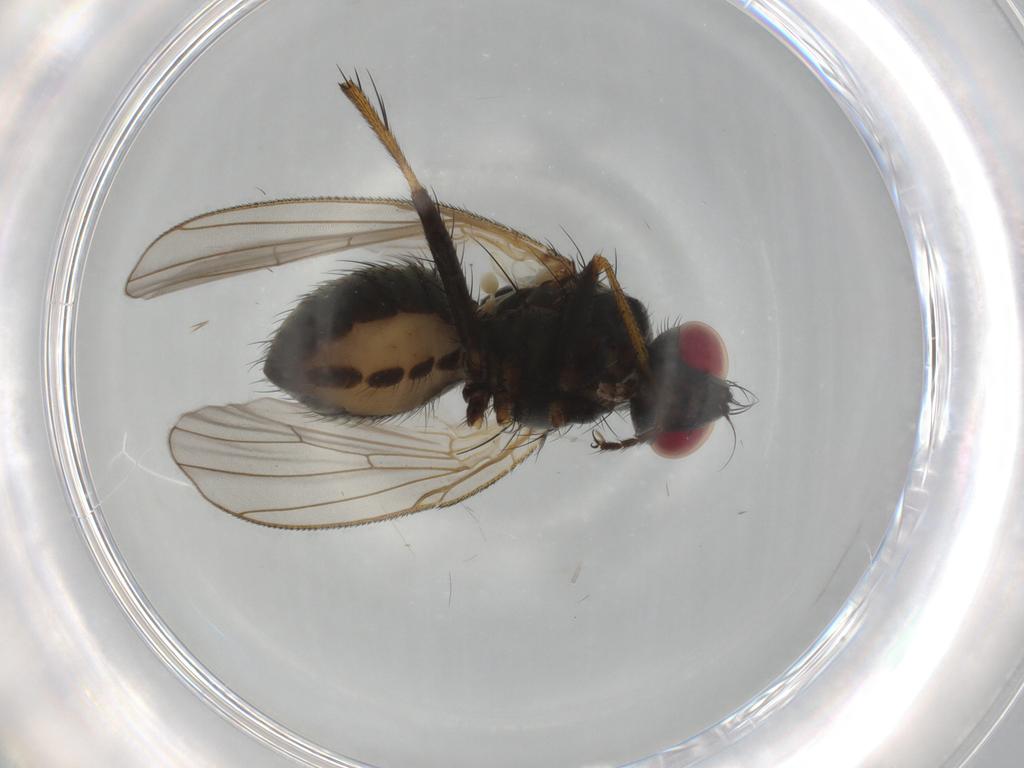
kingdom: Animalia
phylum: Arthropoda
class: Insecta
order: Diptera
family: Muscidae
